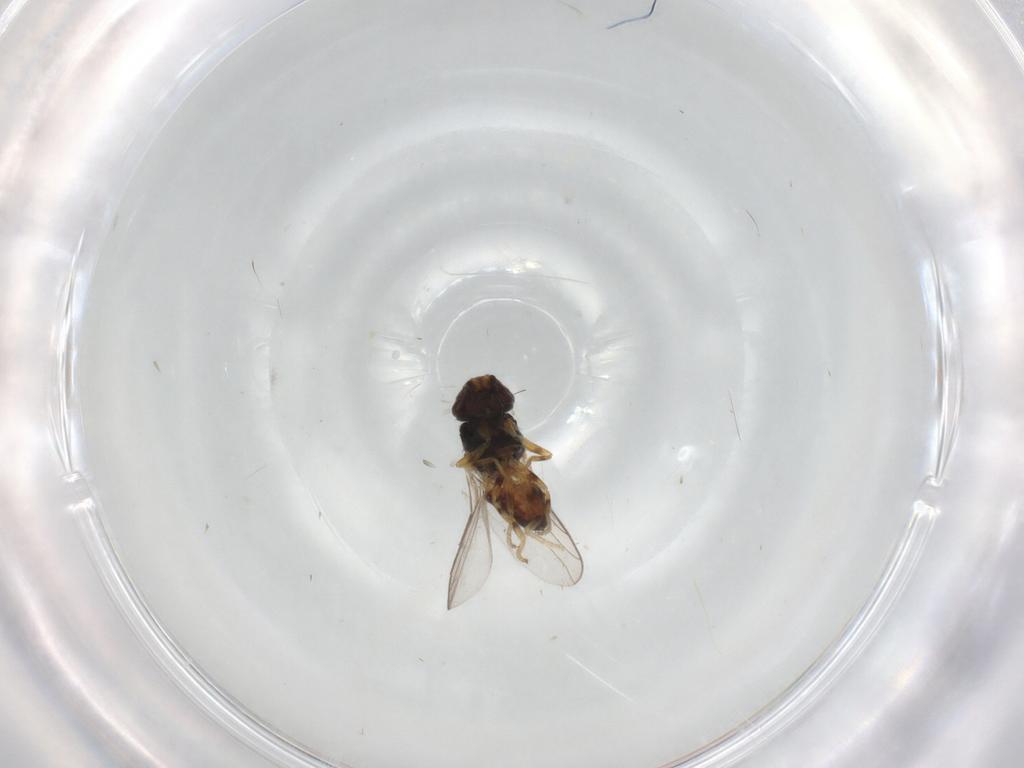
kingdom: Animalia
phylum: Arthropoda
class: Insecta
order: Diptera
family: Chloropidae
